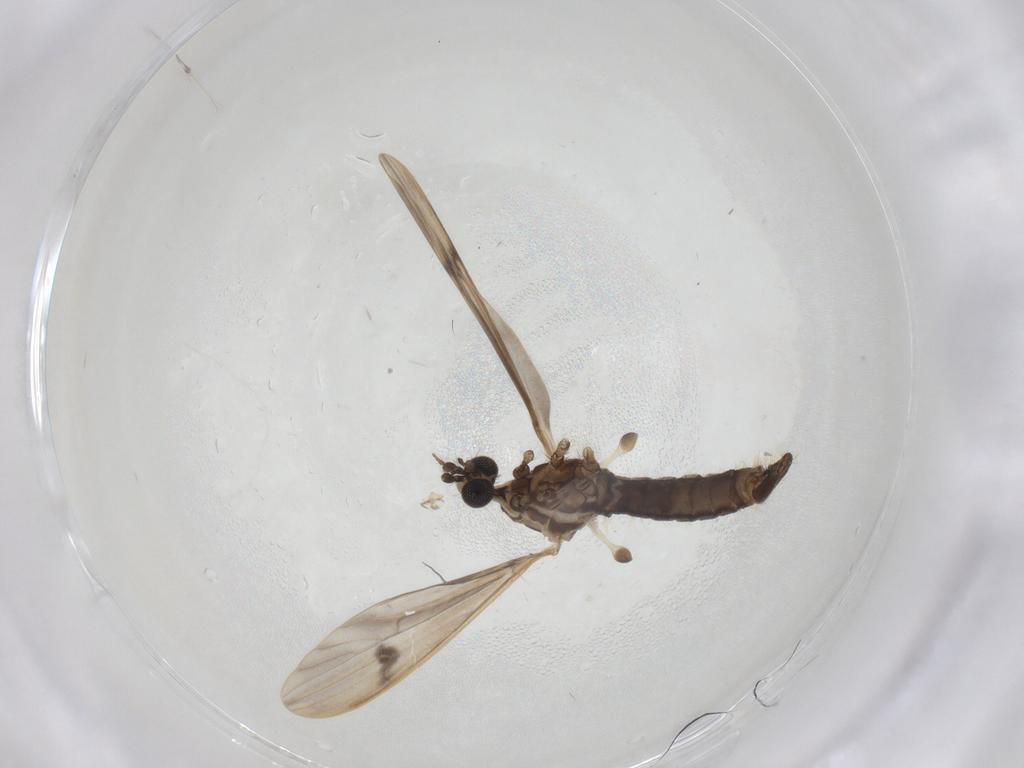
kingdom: Animalia
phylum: Arthropoda
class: Insecta
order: Diptera
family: Limoniidae
